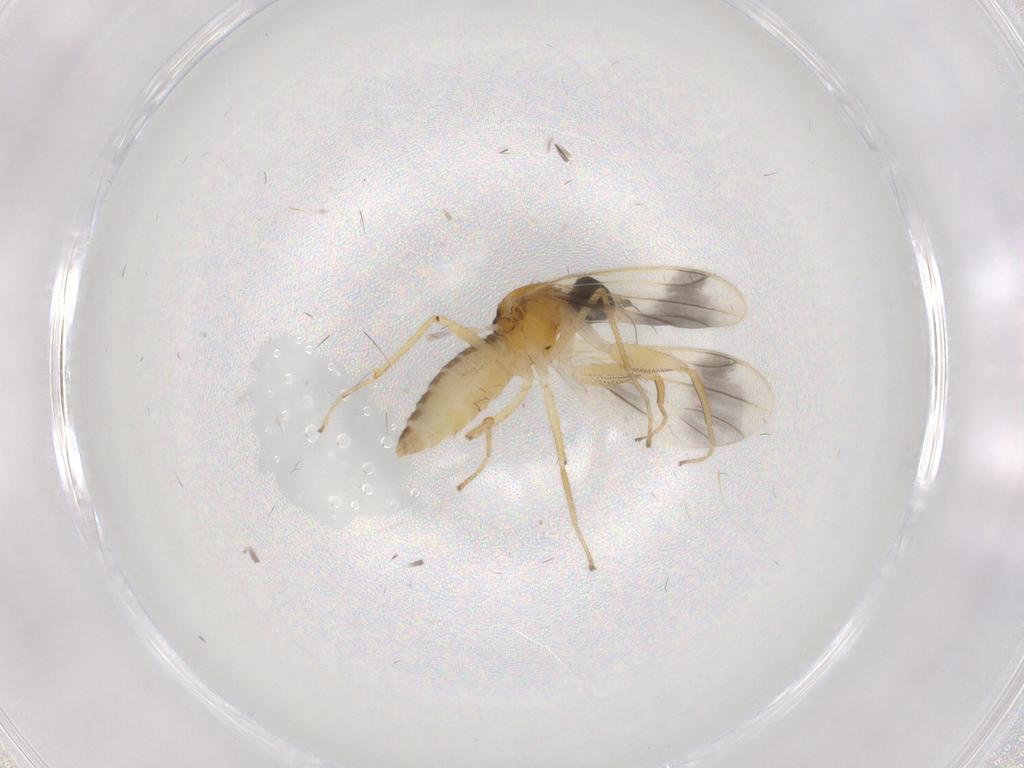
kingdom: Animalia
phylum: Arthropoda
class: Insecta
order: Diptera
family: Empididae
